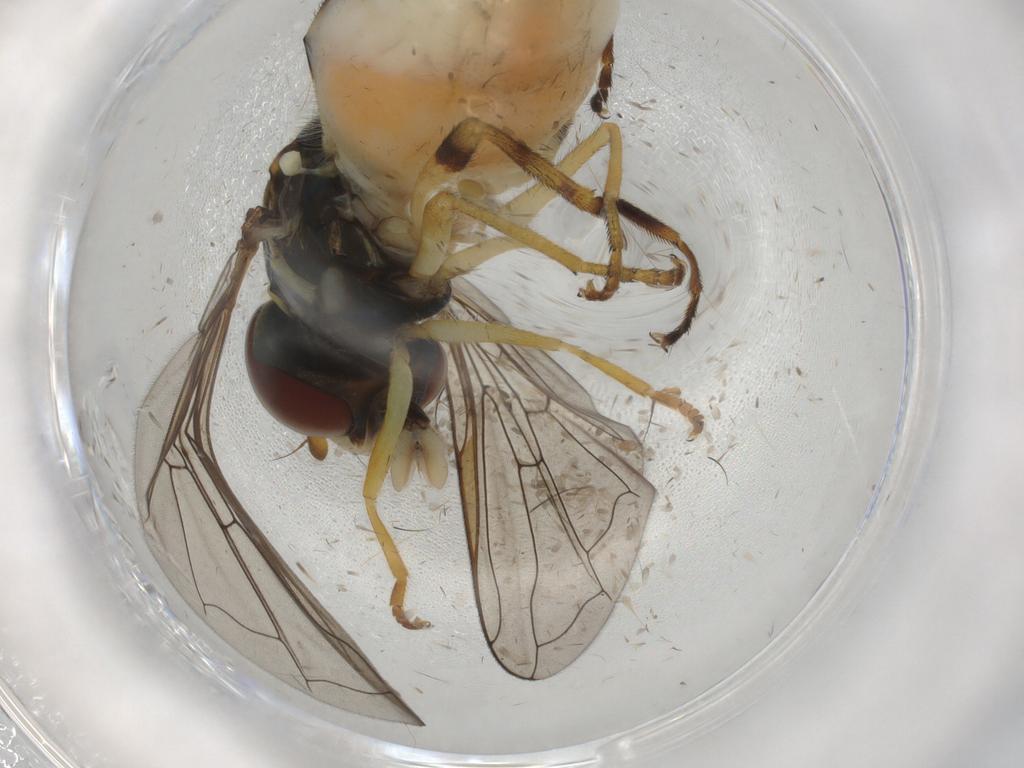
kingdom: Animalia
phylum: Arthropoda
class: Insecta
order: Diptera
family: Syrphidae
